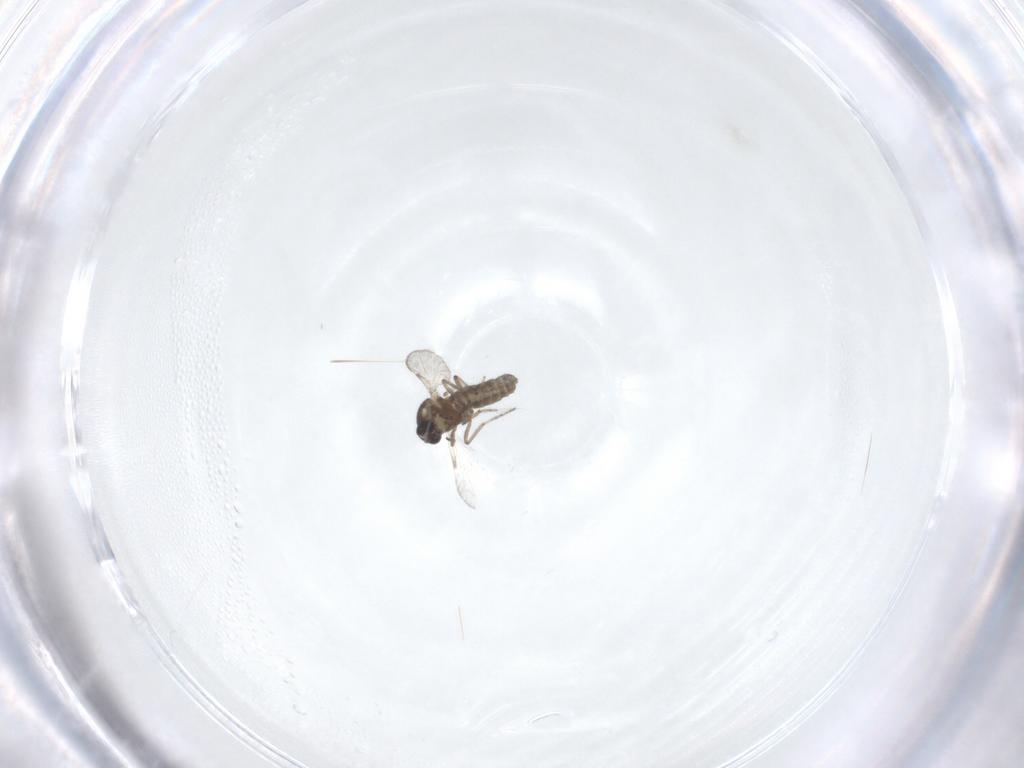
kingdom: Animalia
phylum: Arthropoda
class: Insecta
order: Diptera
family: Ceratopogonidae
